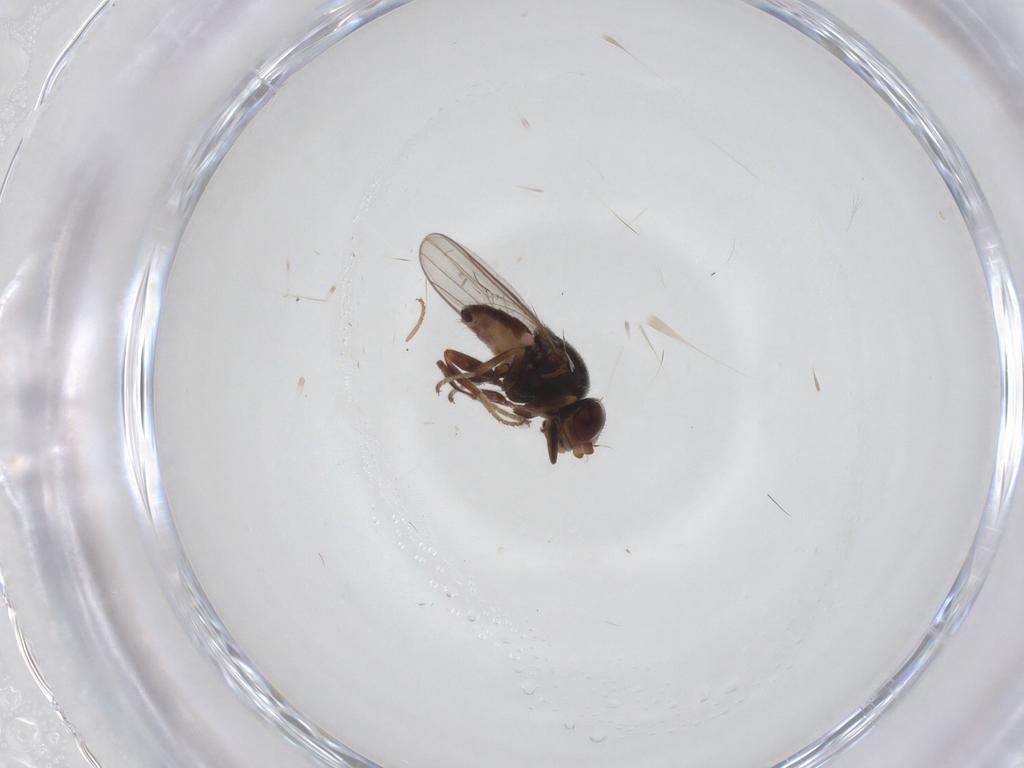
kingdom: Animalia
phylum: Arthropoda
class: Insecta
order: Diptera
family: Chloropidae
